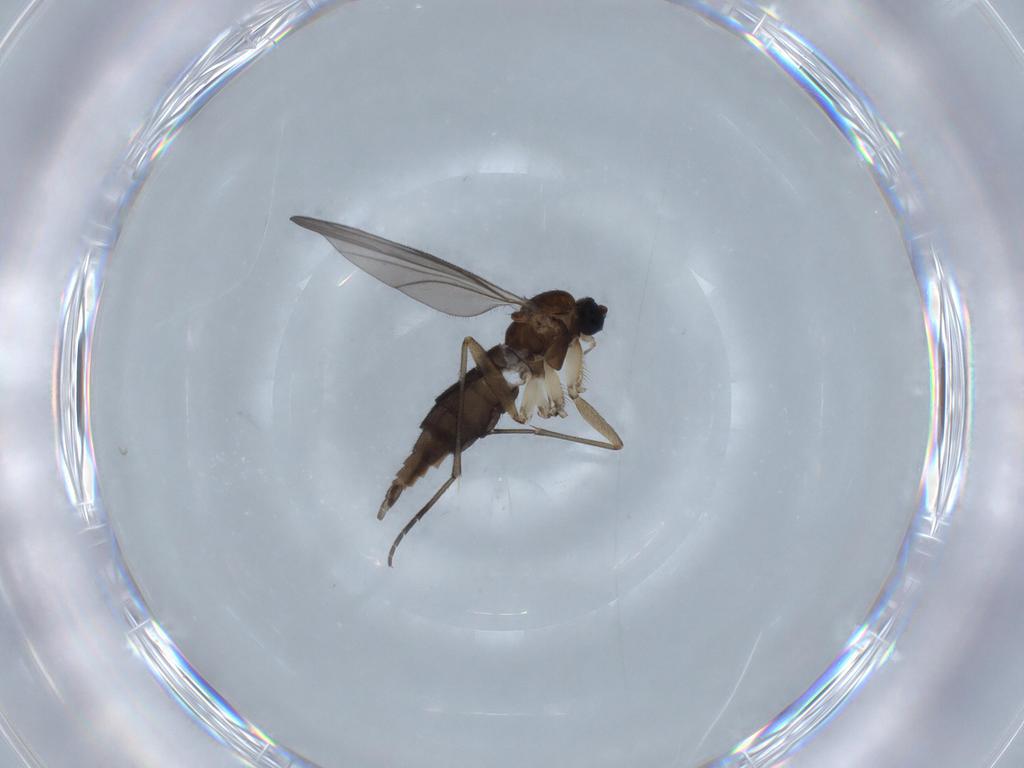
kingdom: Animalia
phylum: Arthropoda
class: Insecta
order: Diptera
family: Sciaridae
